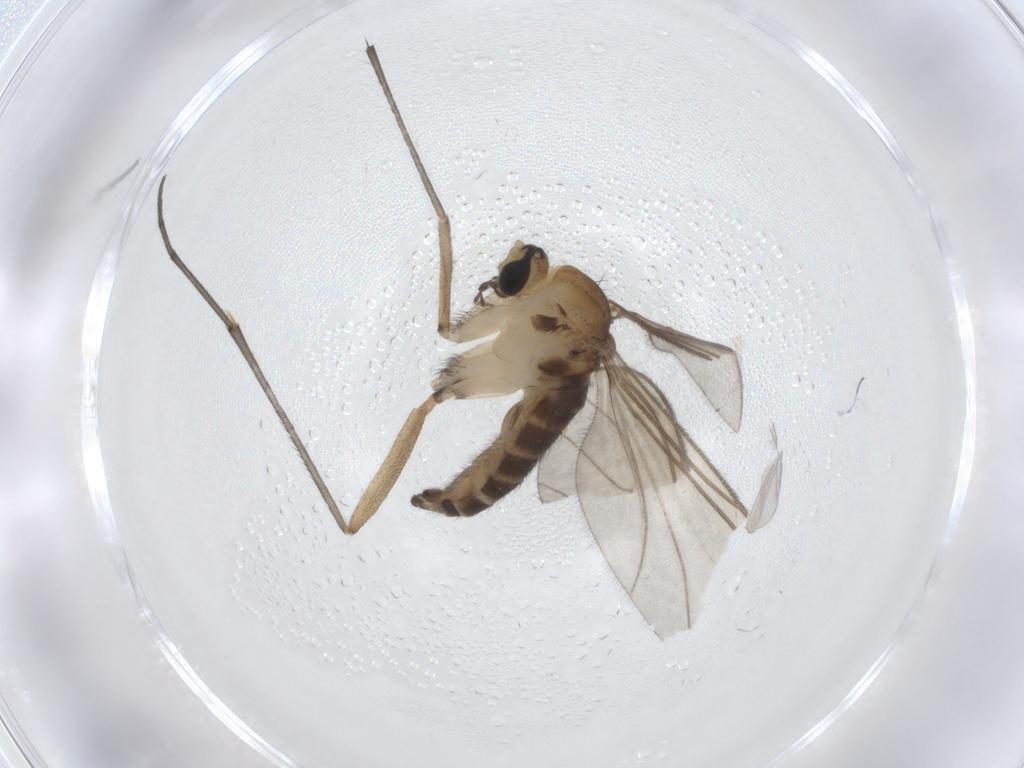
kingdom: Animalia
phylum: Arthropoda
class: Insecta
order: Diptera
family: Sciaridae
